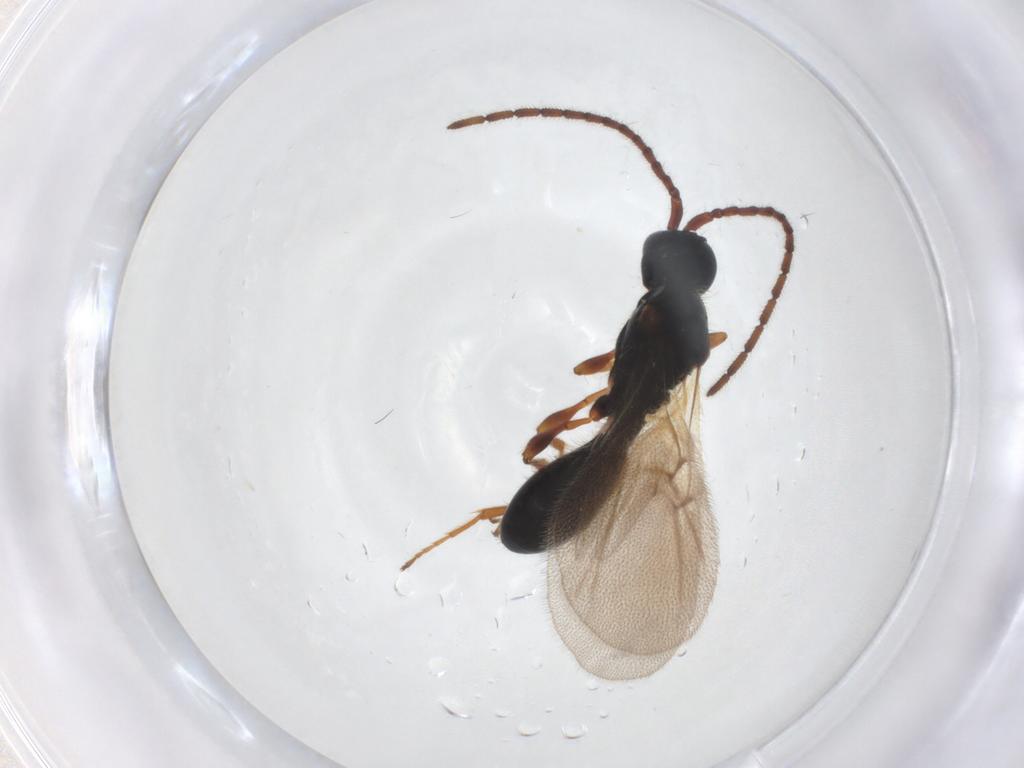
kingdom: Animalia
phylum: Arthropoda
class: Insecta
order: Hymenoptera
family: Diapriidae
